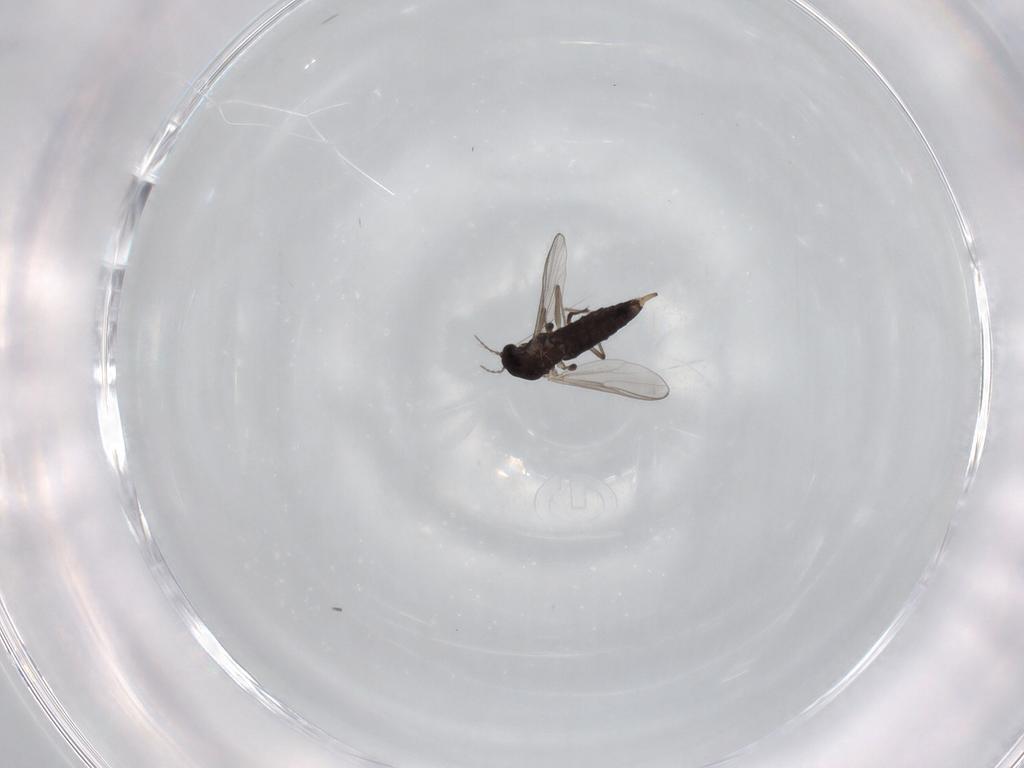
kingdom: Animalia
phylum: Arthropoda
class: Insecta
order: Diptera
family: Chironomidae
